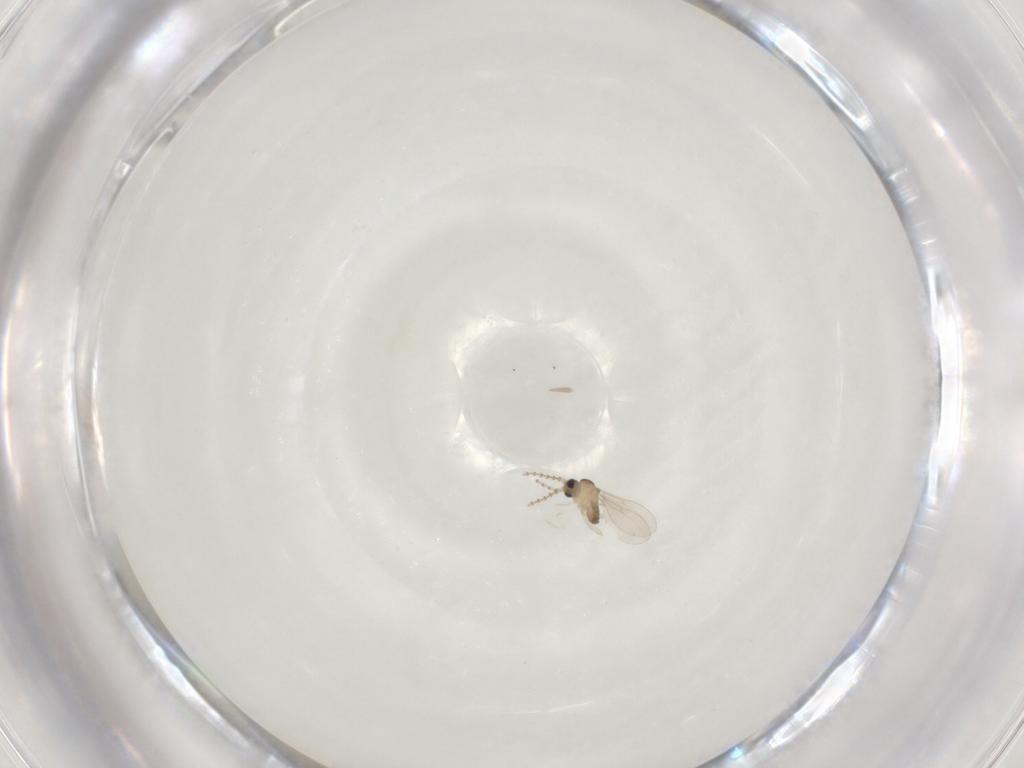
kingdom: Animalia
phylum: Arthropoda
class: Insecta
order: Diptera
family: Cecidomyiidae
